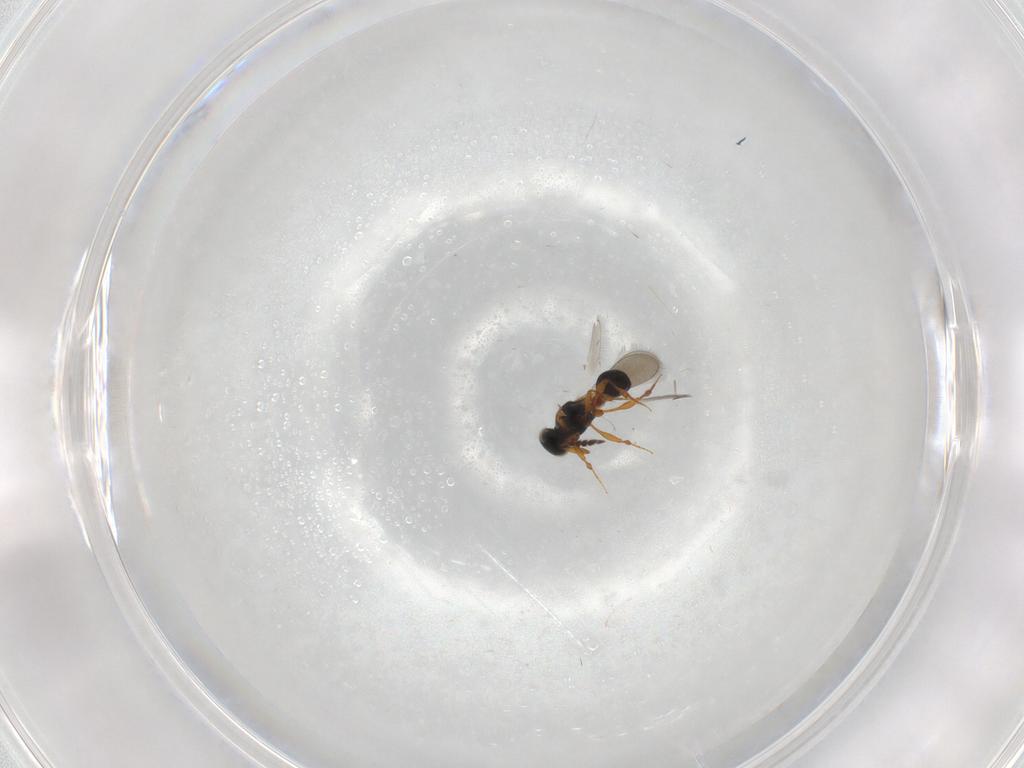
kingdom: Animalia
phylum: Arthropoda
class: Insecta
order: Hymenoptera
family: Platygastridae
